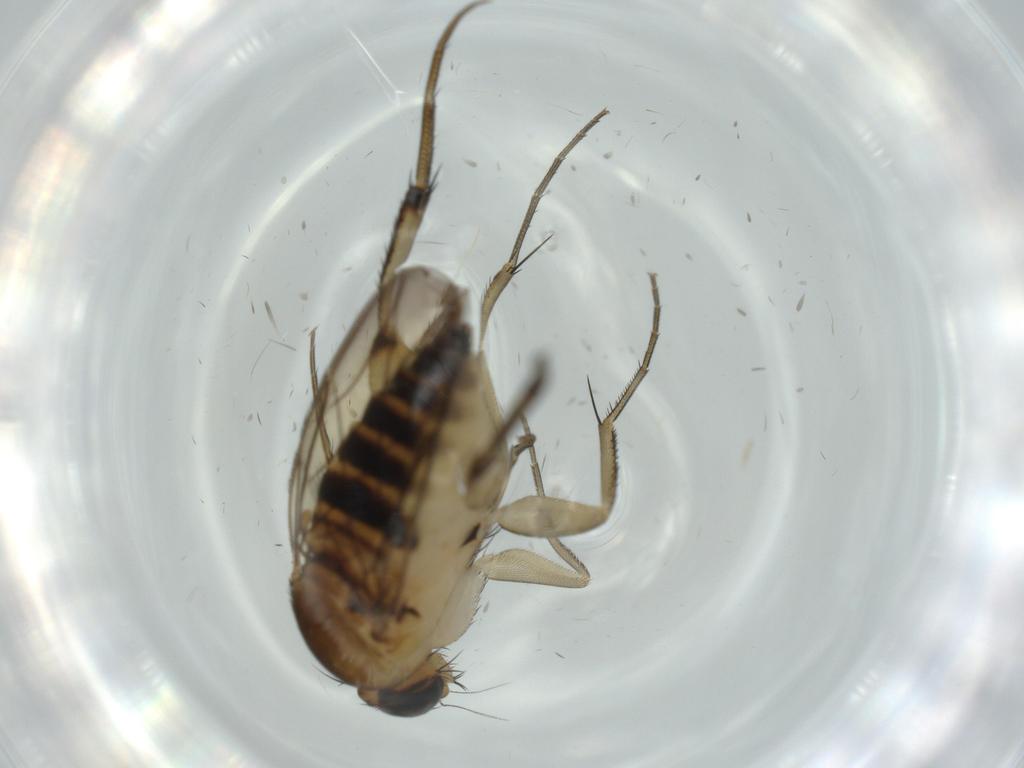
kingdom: Animalia
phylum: Arthropoda
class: Insecta
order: Diptera
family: Phoridae
